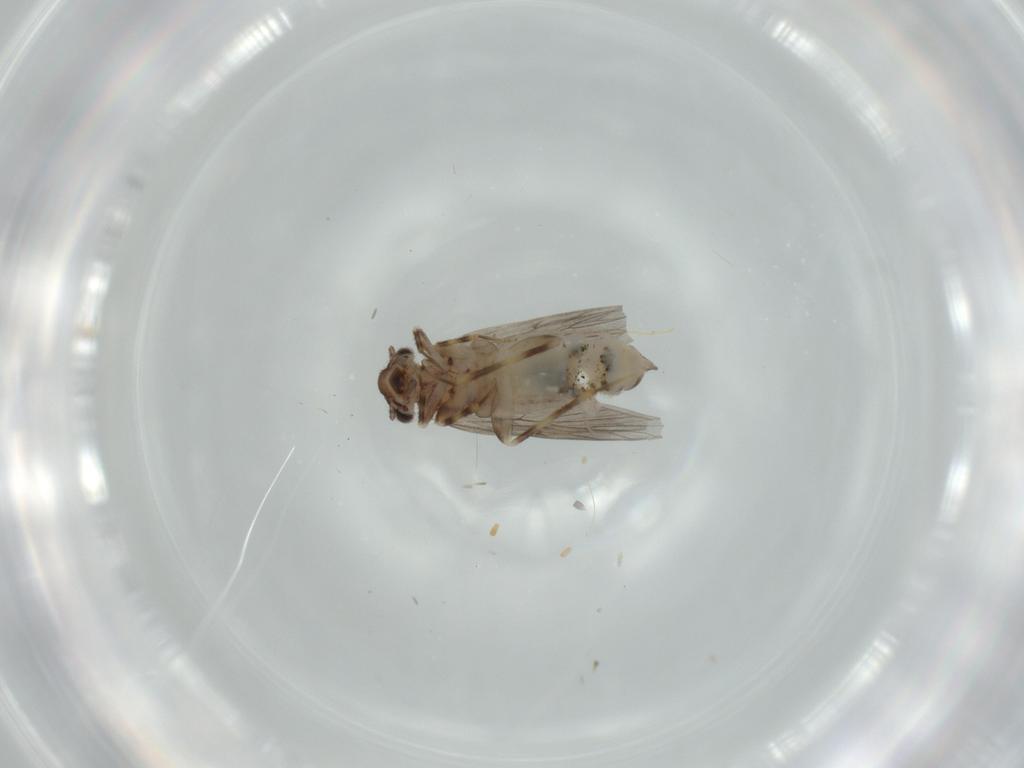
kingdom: Animalia
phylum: Arthropoda
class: Insecta
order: Psocodea
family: Lepidopsocidae
